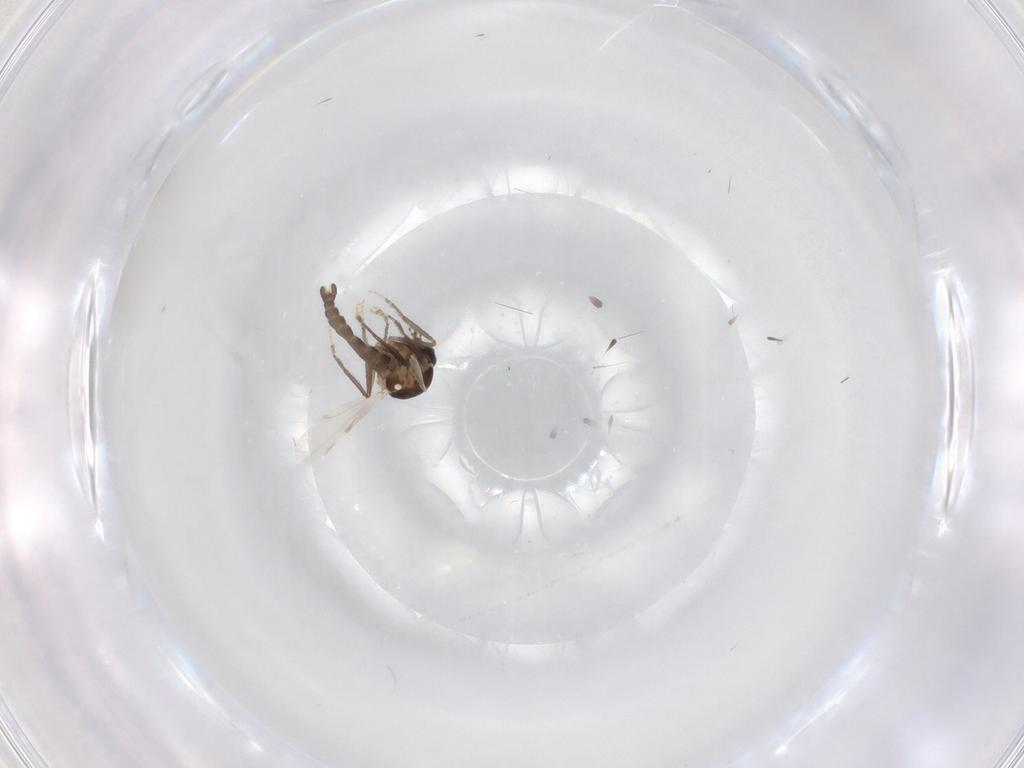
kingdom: Animalia
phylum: Arthropoda
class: Insecta
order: Diptera
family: Ceratopogonidae
